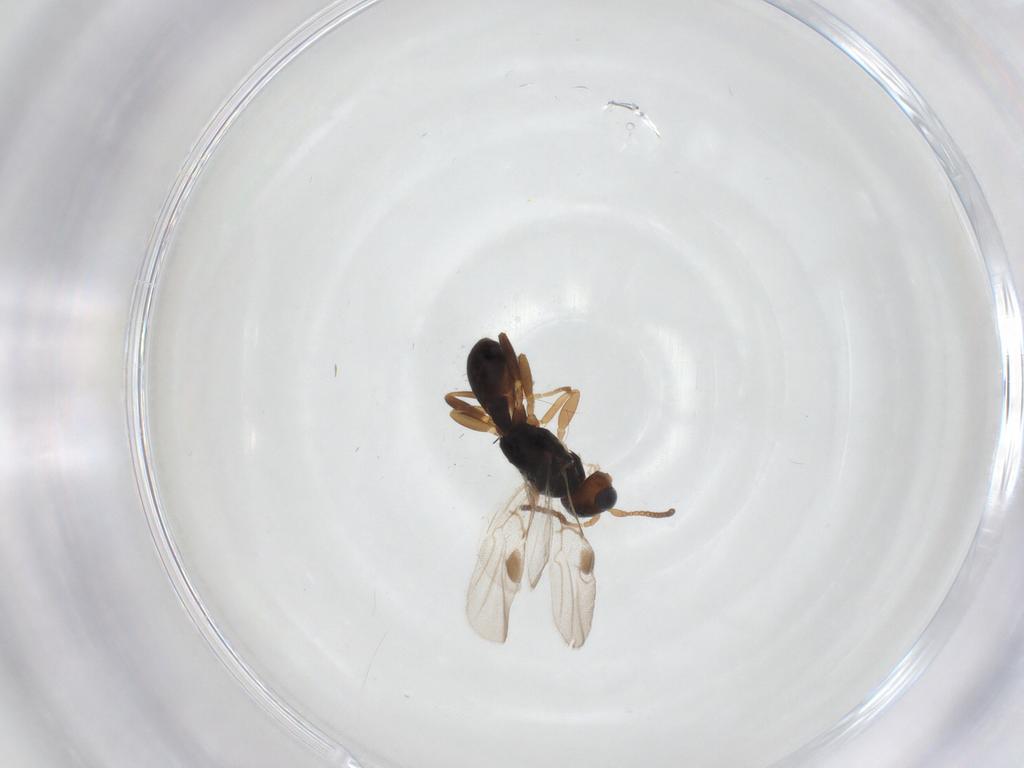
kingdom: Animalia
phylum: Arthropoda
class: Insecta
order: Hymenoptera
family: Braconidae
